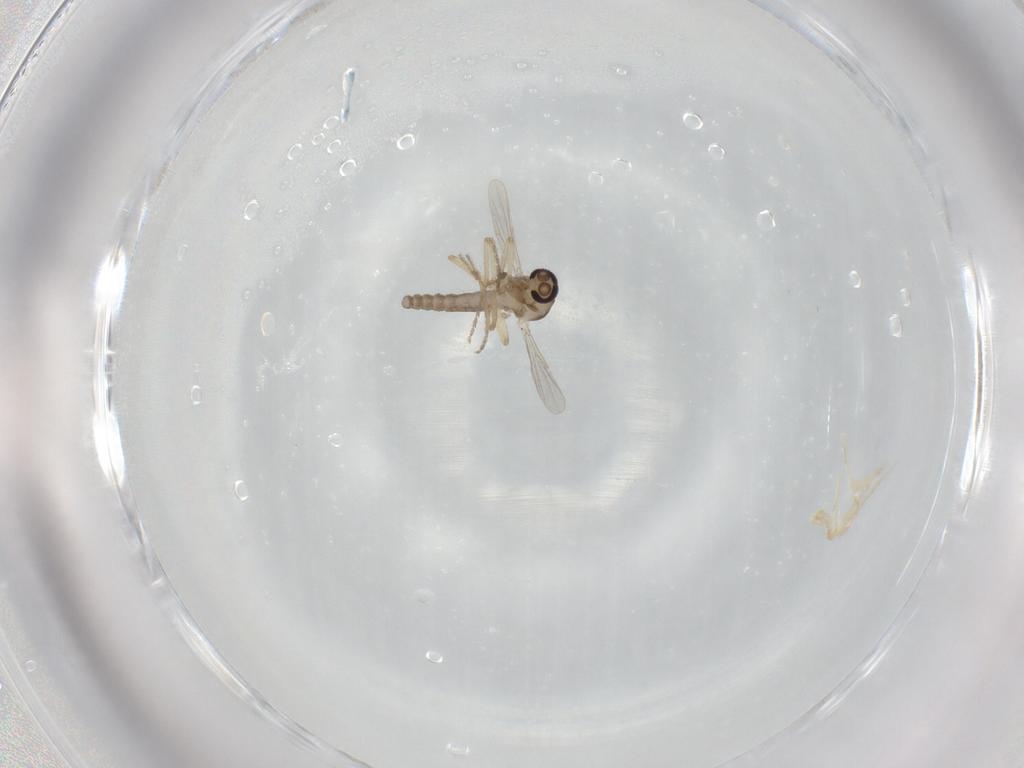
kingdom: Animalia
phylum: Arthropoda
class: Insecta
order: Diptera
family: Ceratopogonidae
